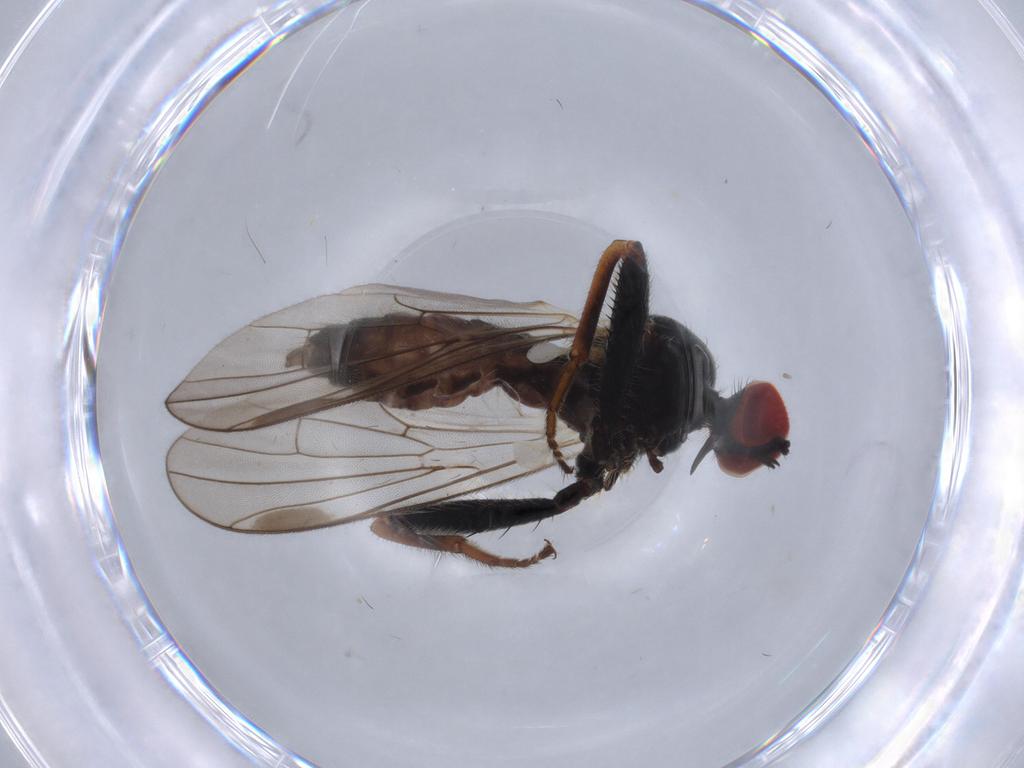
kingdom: Animalia
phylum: Arthropoda
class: Insecta
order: Diptera
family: Hybotidae
